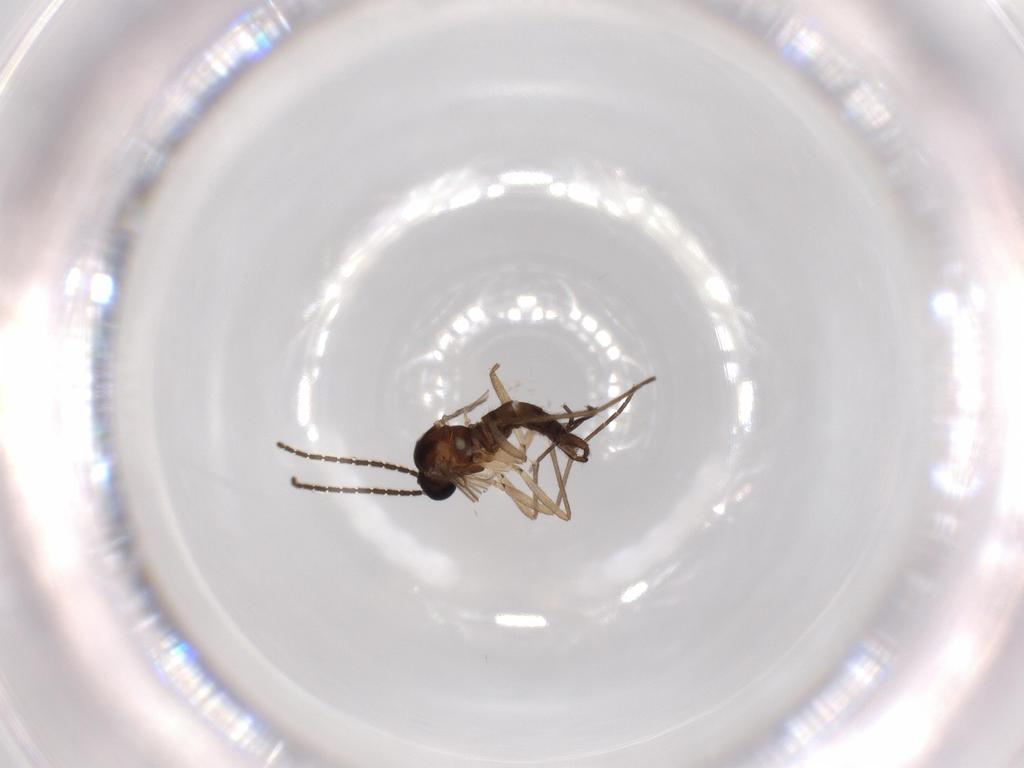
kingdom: Animalia
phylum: Arthropoda
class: Insecta
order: Diptera
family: Sciaridae
